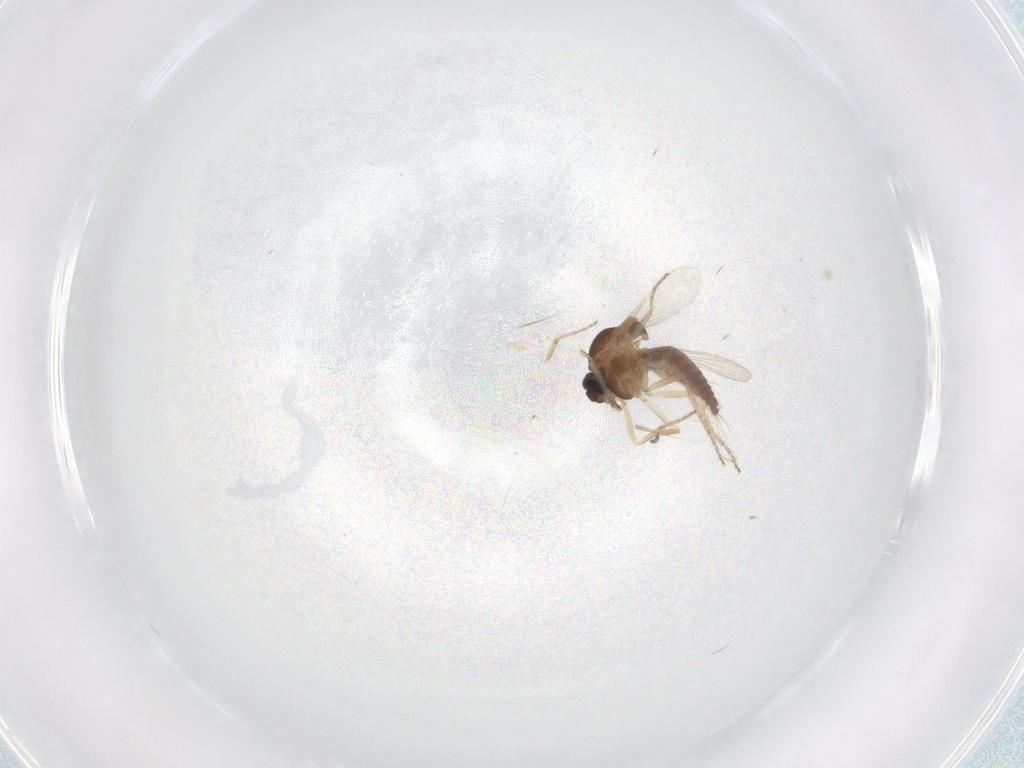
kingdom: Animalia
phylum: Arthropoda
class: Insecta
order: Diptera
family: Ceratopogonidae
